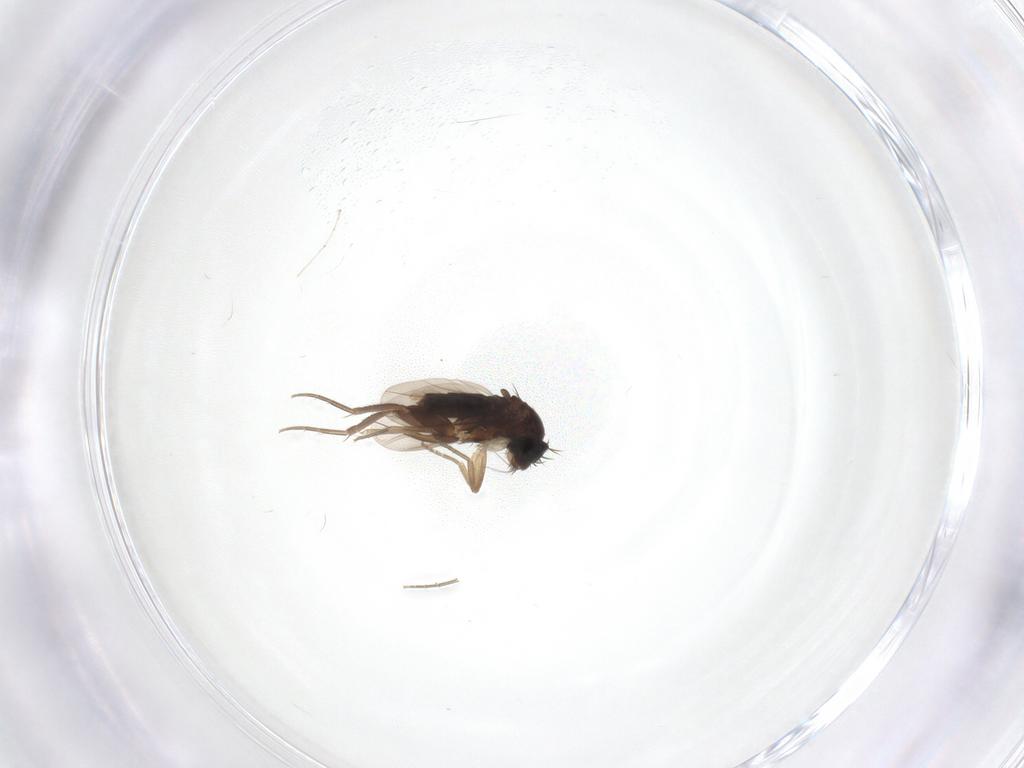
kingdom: Animalia
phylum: Arthropoda
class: Insecta
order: Diptera
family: Phoridae
